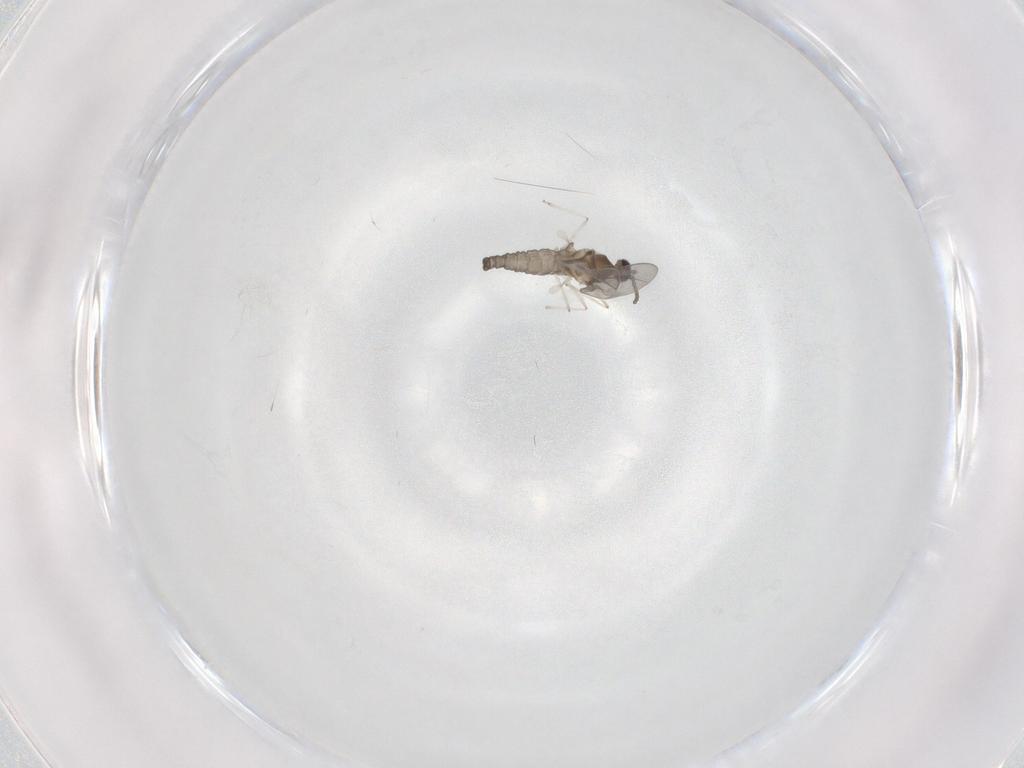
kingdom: Animalia
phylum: Arthropoda
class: Insecta
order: Diptera
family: Cecidomyiidae
